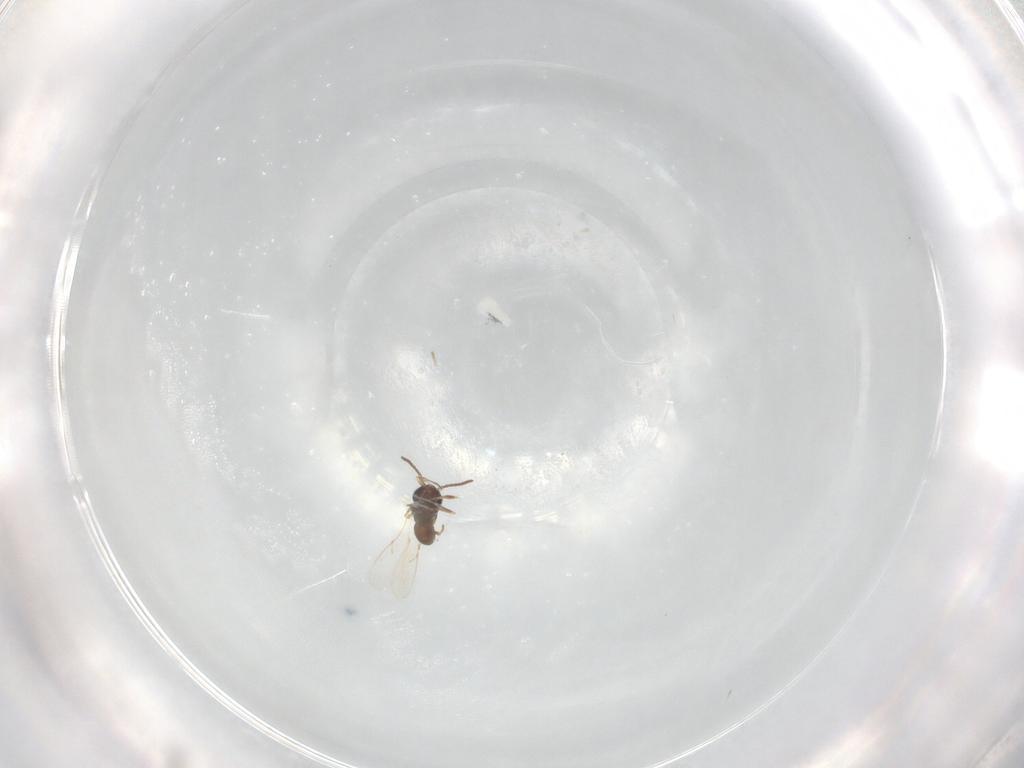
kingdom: Animalia
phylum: Arthropoda
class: Insecta
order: Hymenoptera
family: Scelionidae
